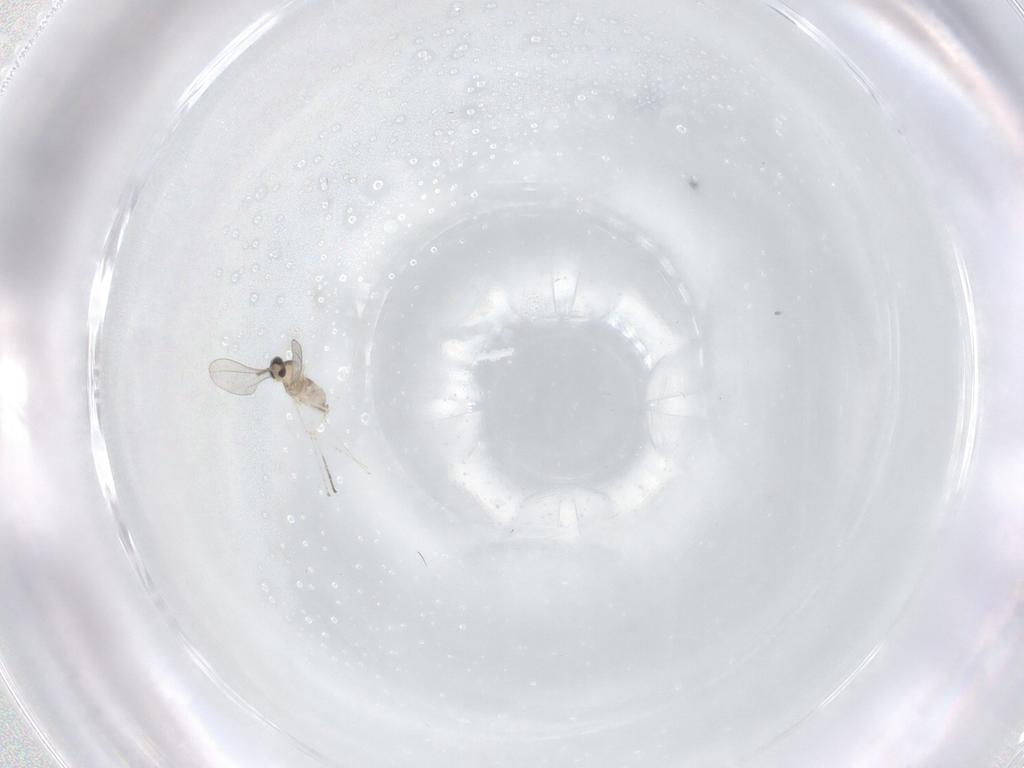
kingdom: Animalia
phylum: Arthropoda
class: Insecta
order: Diptera
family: Cecidomyiidae
